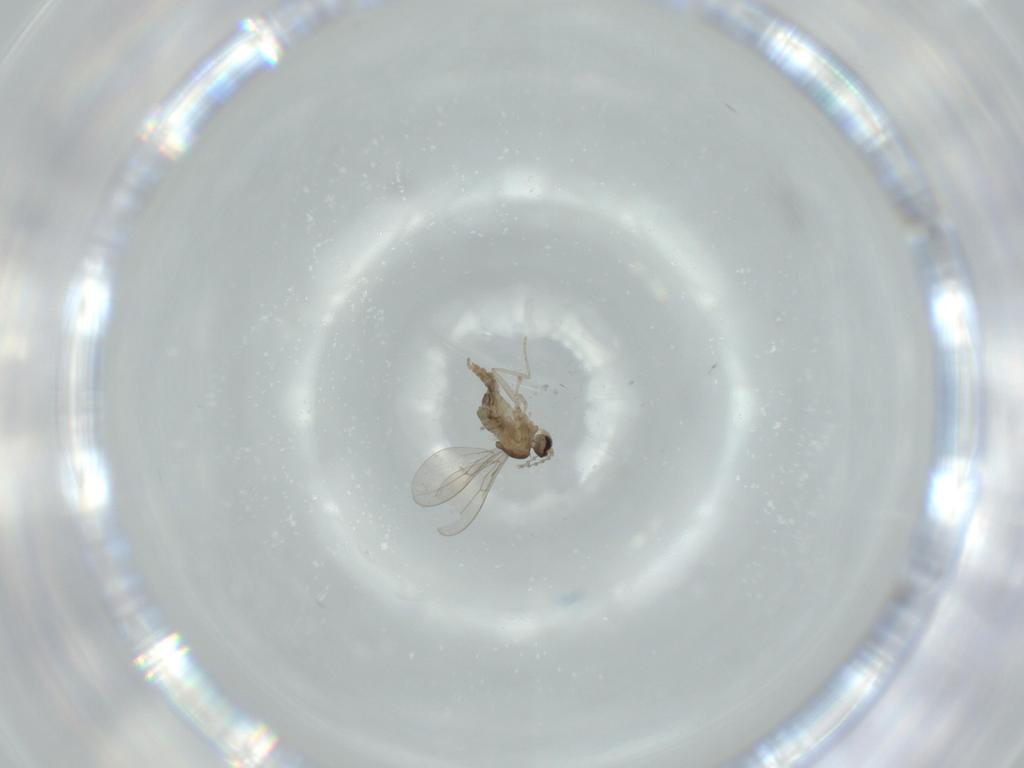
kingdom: Animalia
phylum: Arthropoda
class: Insecta
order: Diptera
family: Cecidomyiidae
